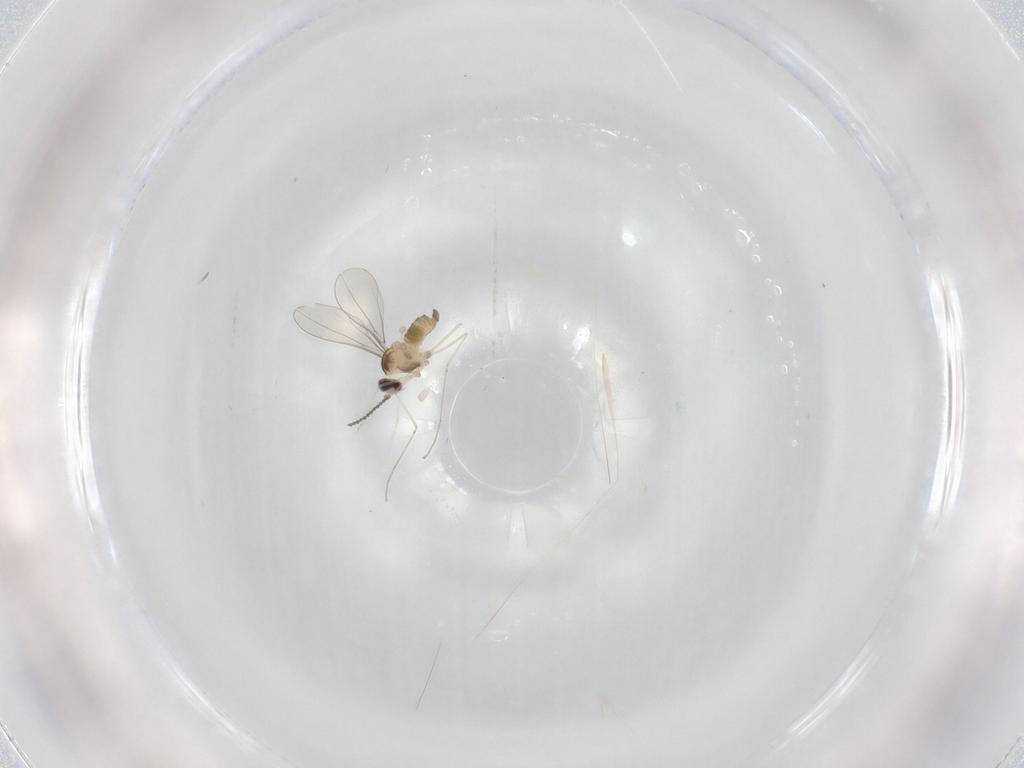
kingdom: Animalia
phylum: Arthropoda
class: Insecta
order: Diptera
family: Cecidomyiidae
